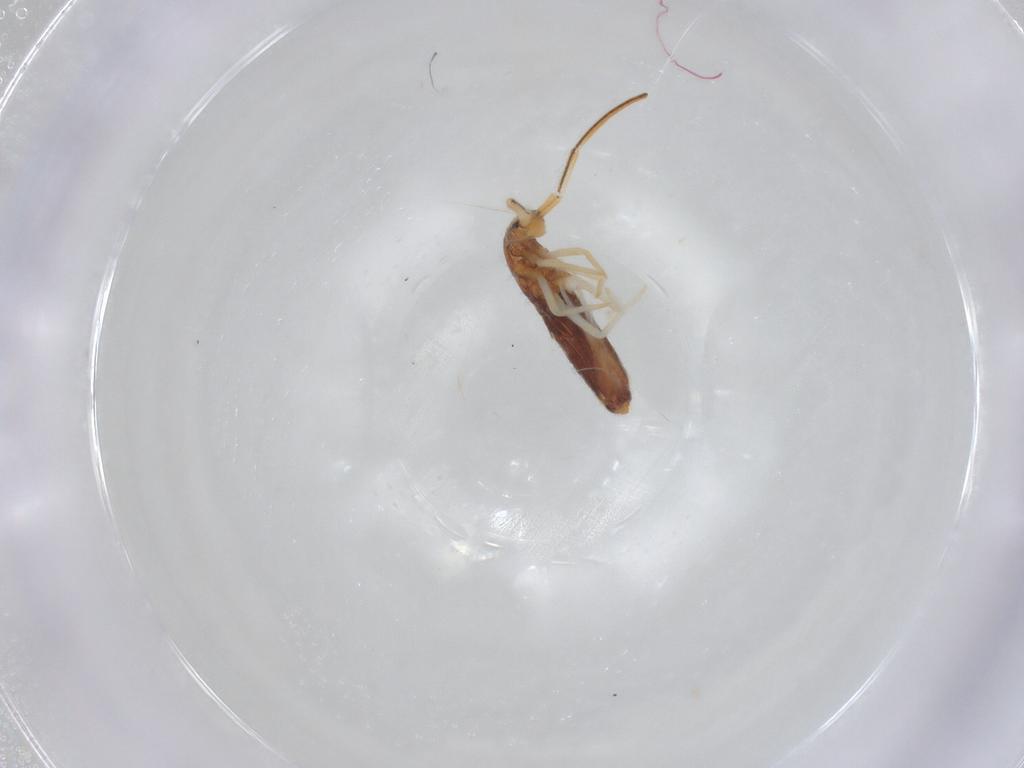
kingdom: Animalia
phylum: Arthropoda
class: Collembola
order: Entomobryomorpha
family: Entomobryidae
